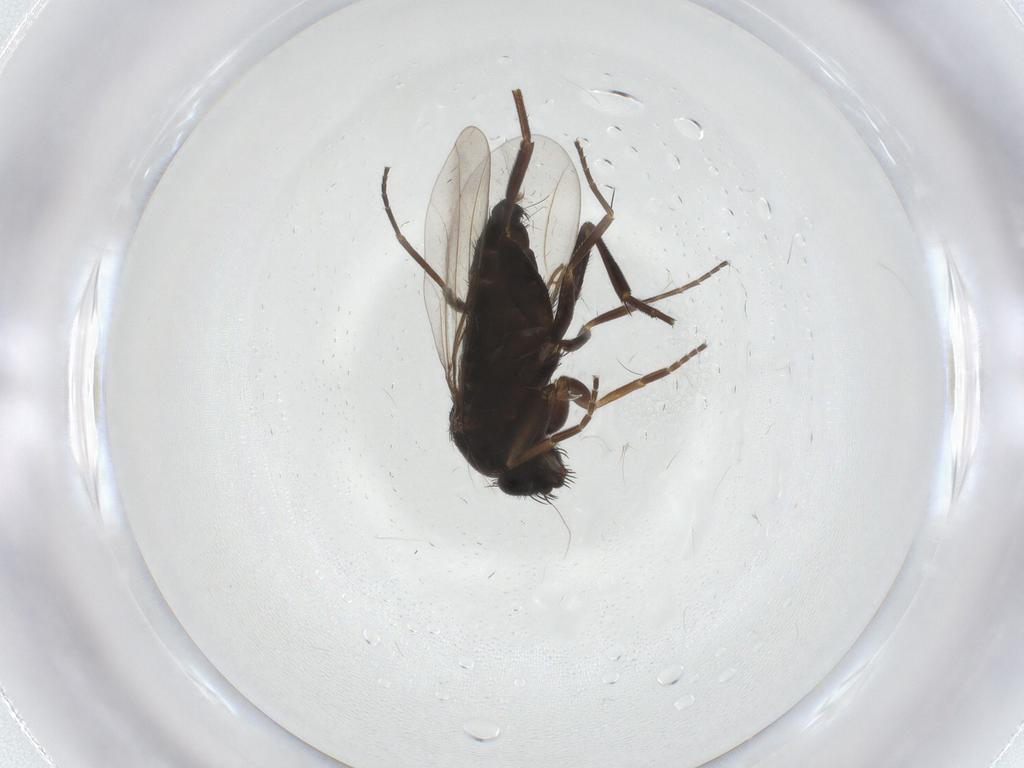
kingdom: Animalia
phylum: Arthropoda
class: Insecta
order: Diptera
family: Phoridae
